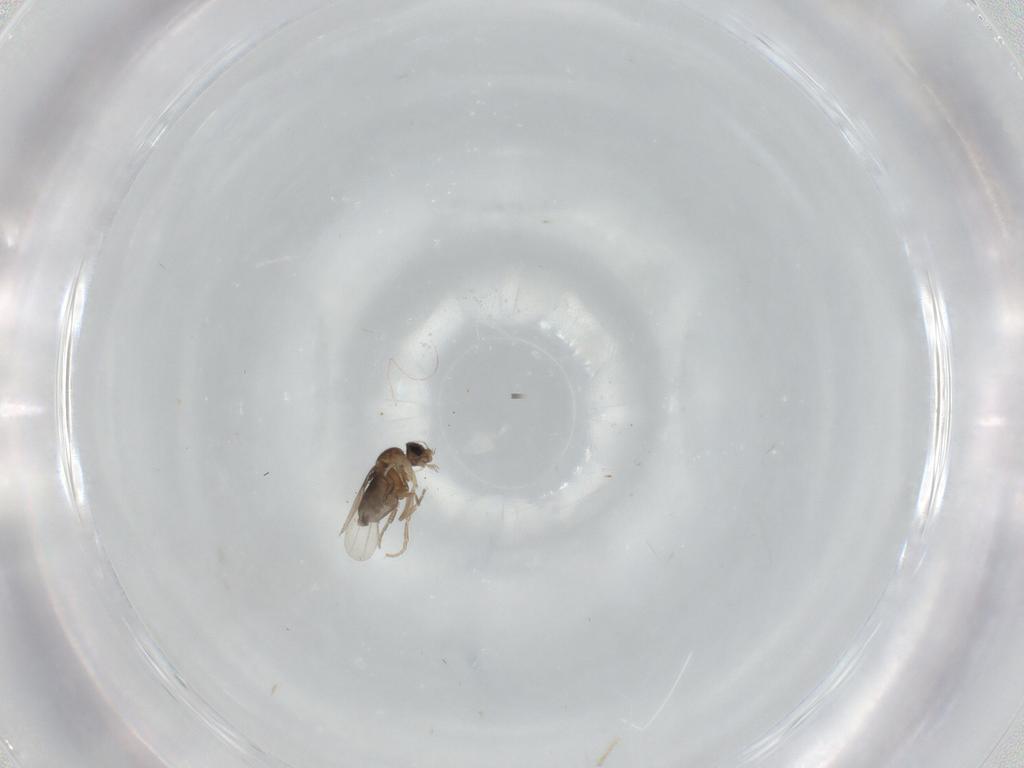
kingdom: Animalia
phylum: Arthropoda
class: Insecta
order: Diptera
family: Phoridae
